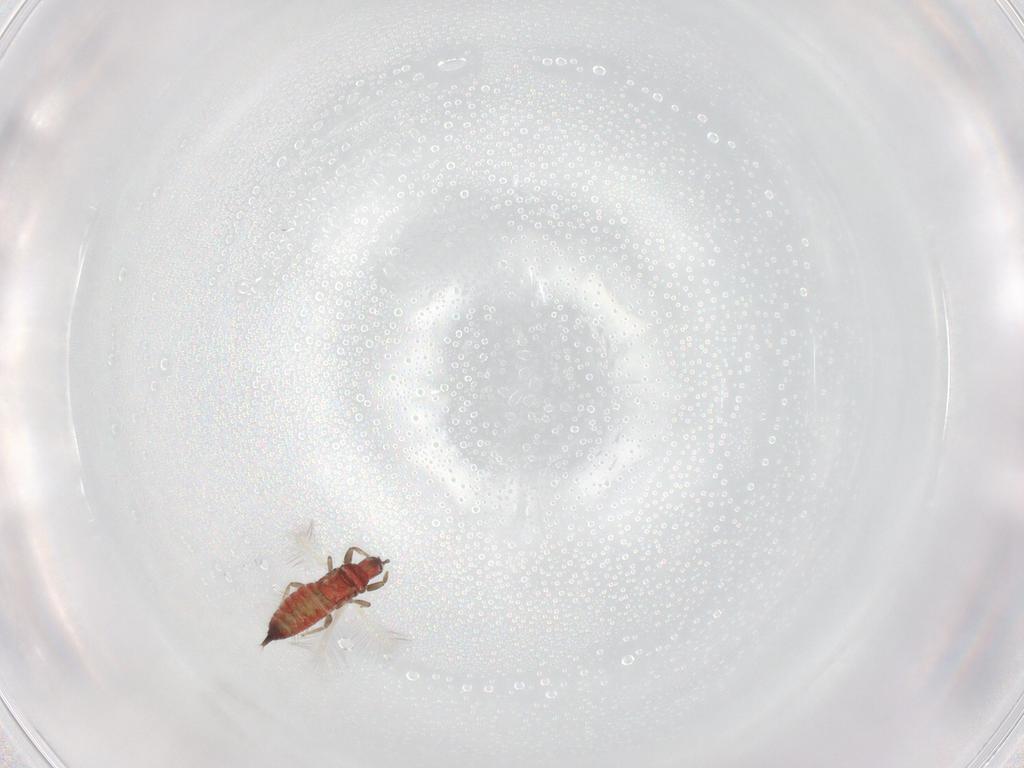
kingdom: Animalia
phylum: Arthropoda
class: Insecta
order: Thysanoptera
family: Phlaeothripidae
